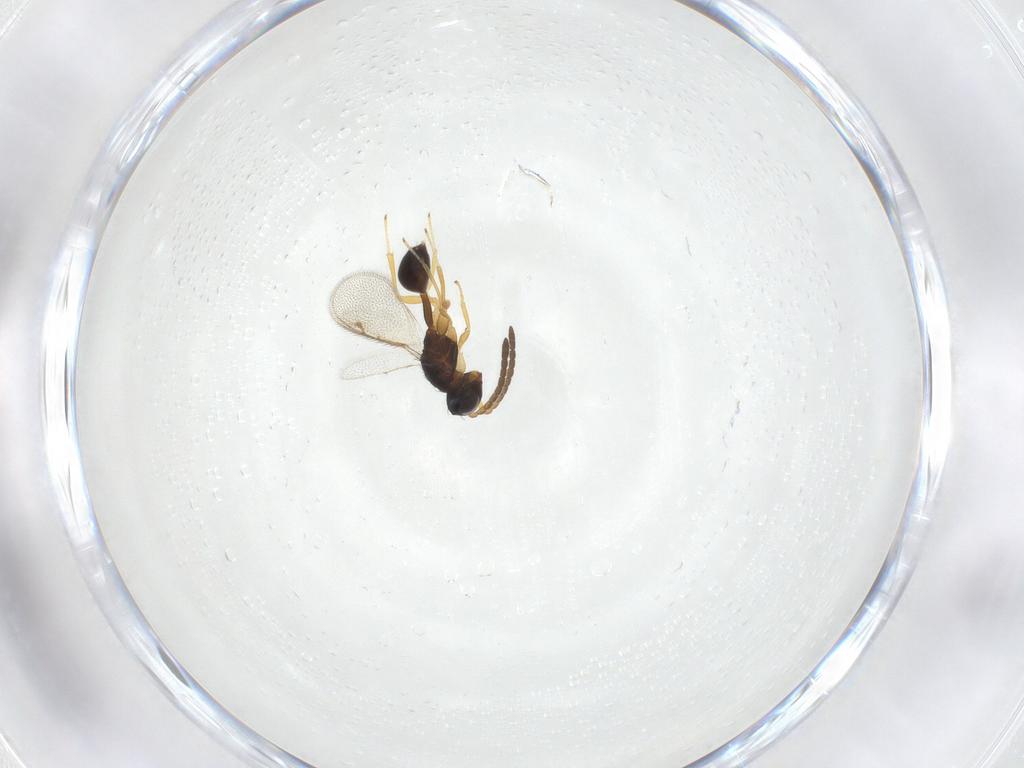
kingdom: Animalia
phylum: Arthropoda
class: Insecta
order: Hymenoptera
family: Diparidae
